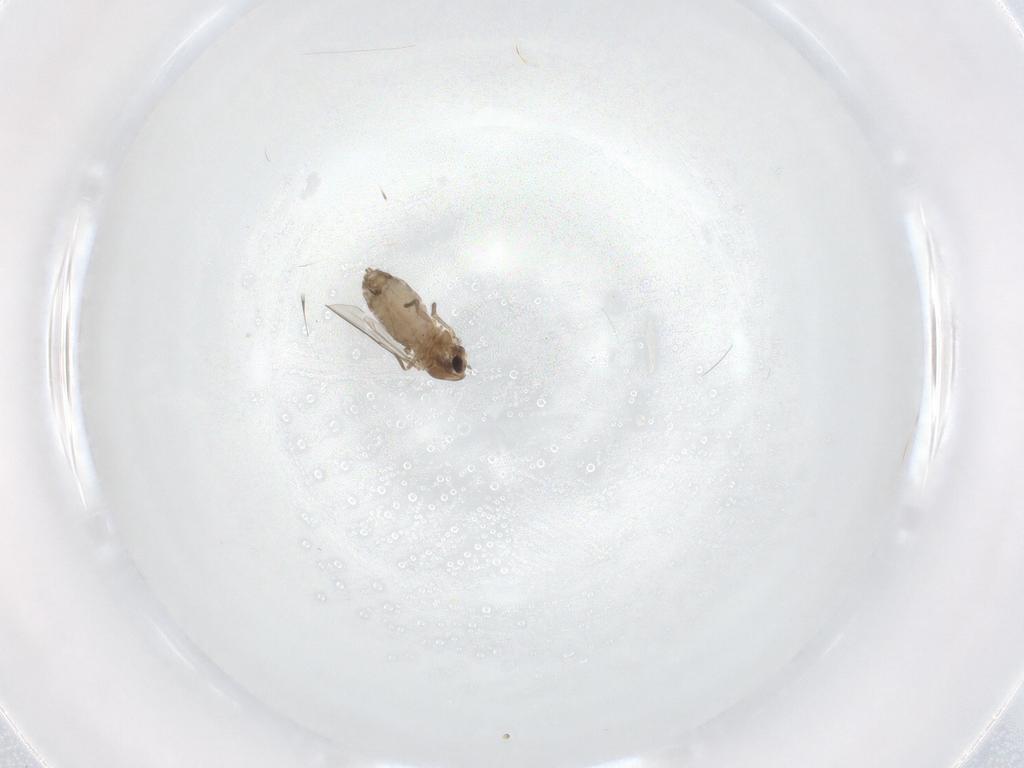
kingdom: Animalia
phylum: Arthropoda
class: Insecta
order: Diptera
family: Chironomidae
